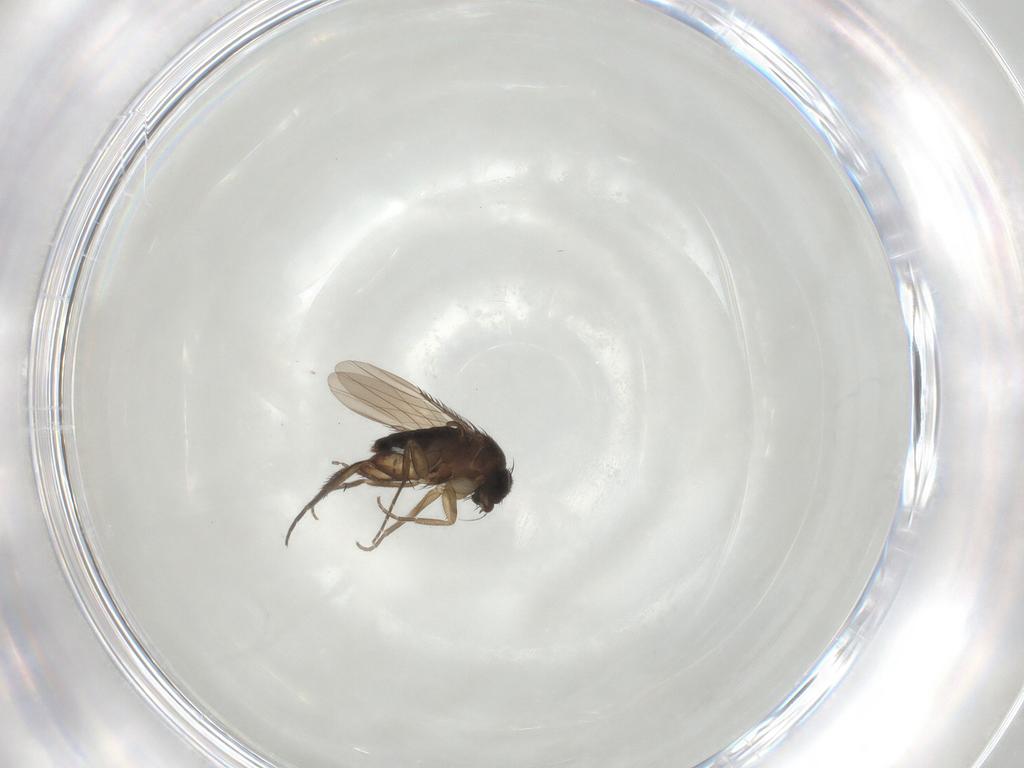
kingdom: Animalia
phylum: Arthropoda
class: Insecta
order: Diptera
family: Phoridae
